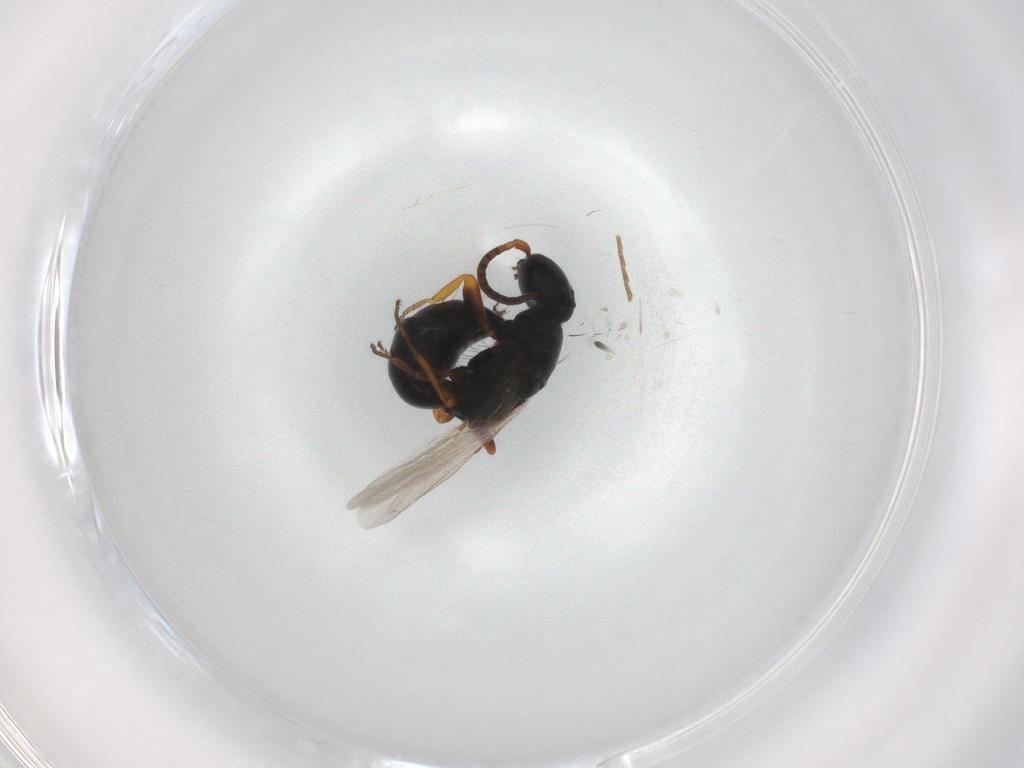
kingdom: Animalia
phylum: Arthropoda
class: Insecta
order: Hymenoptera
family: Bethylidae
